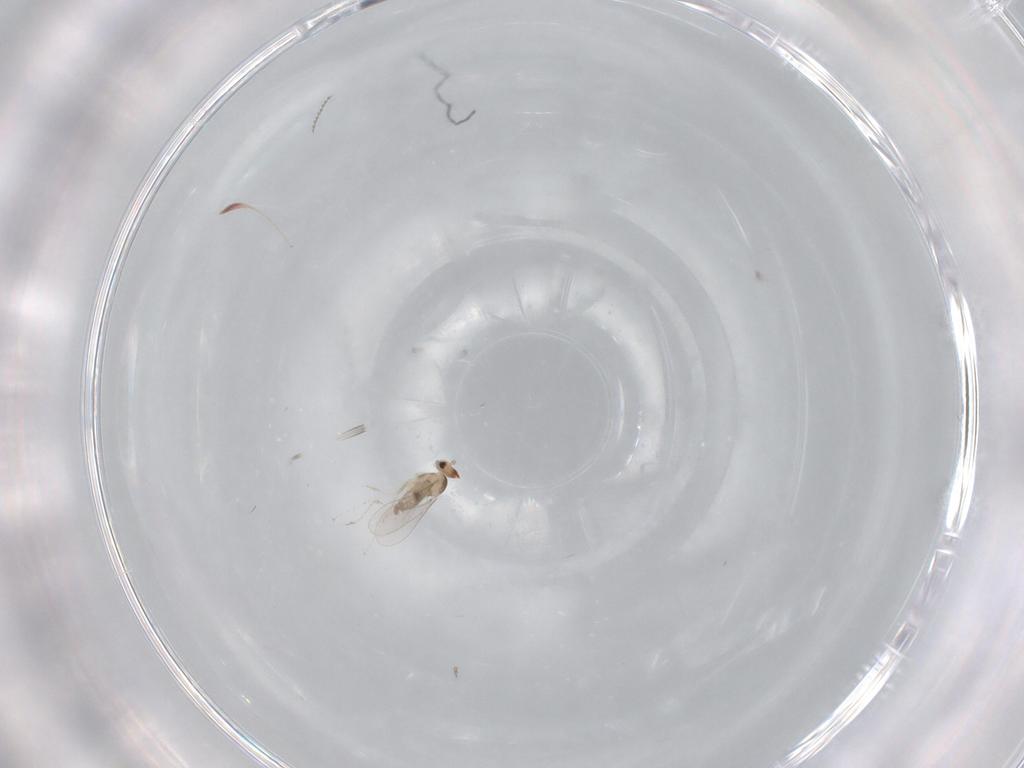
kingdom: Animalia
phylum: Arthropoda
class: Insecta
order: Diptera
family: Cecidomyiidae
